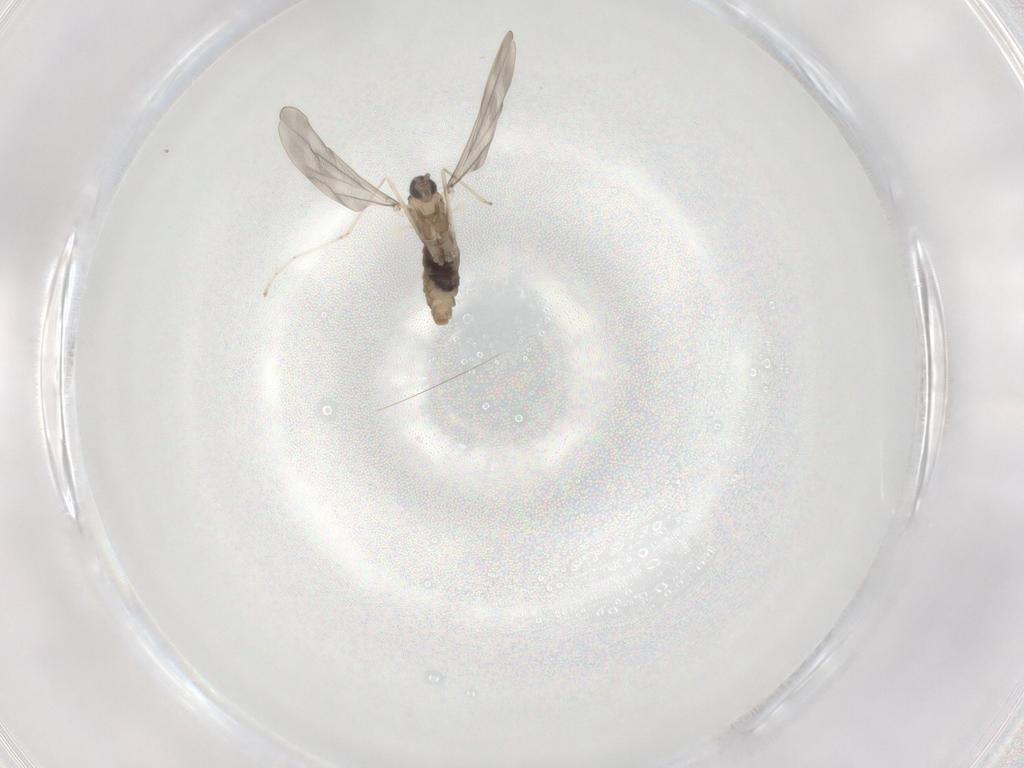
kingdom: Animalia
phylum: Arthropoda
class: Insecta
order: Diptera
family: Cecidomyiidae
